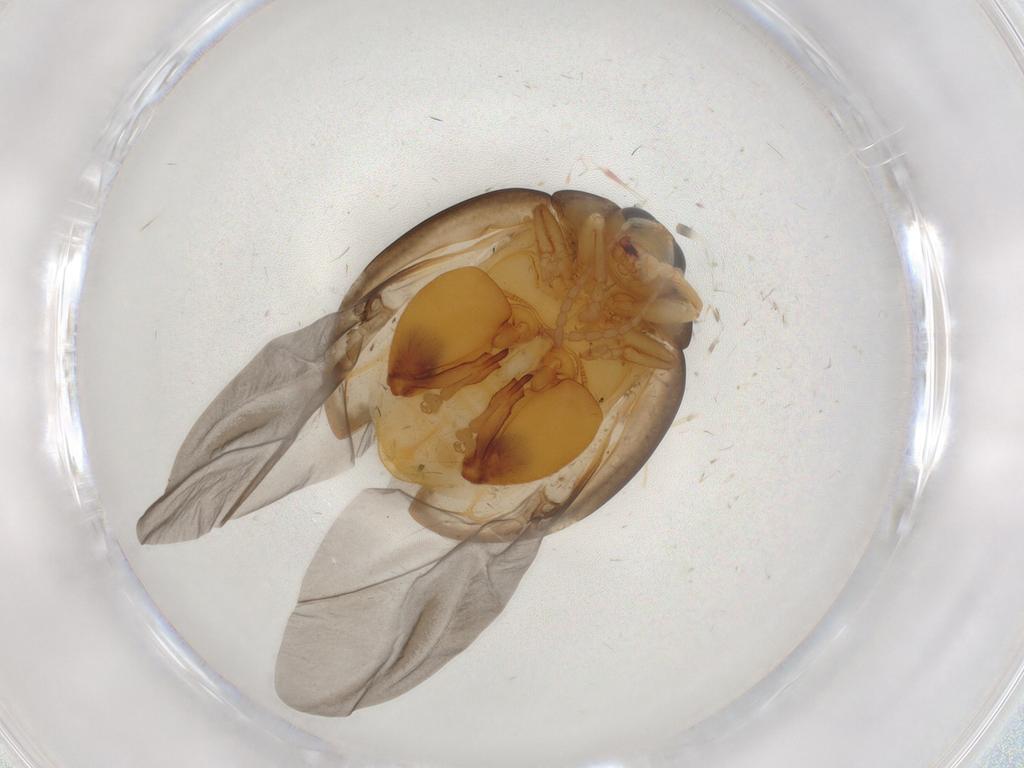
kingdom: Animalia
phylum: Arthropoda
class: Insecta
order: Coleoptera
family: Chrysomelidae
